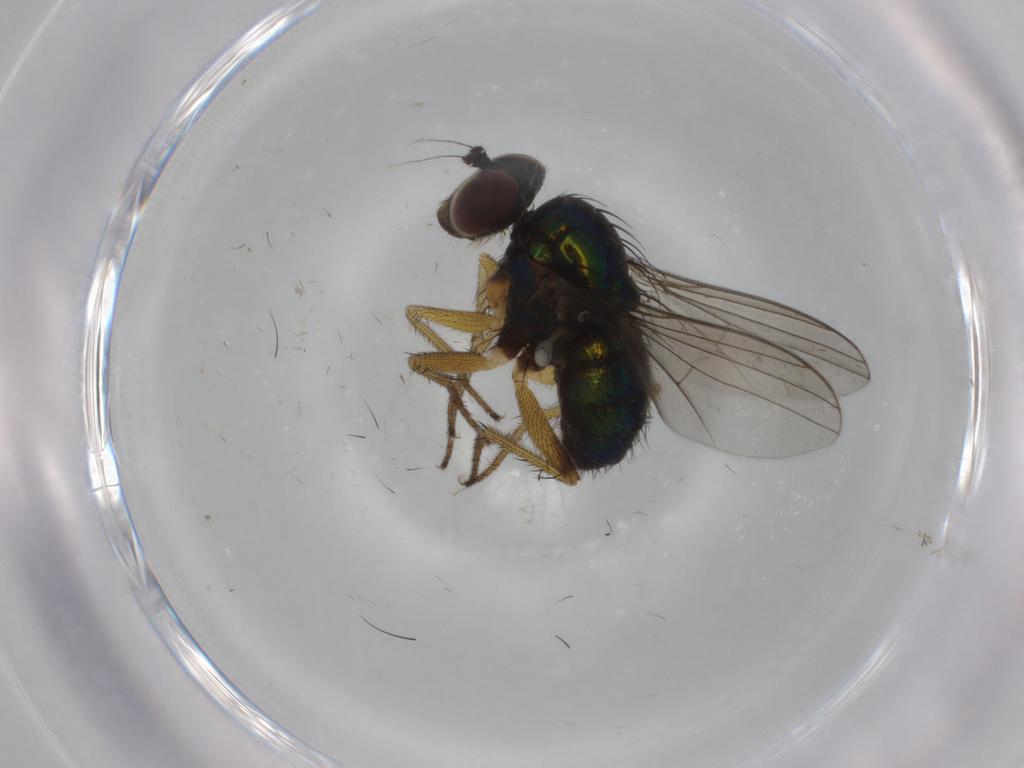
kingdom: Animalia
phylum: Arthropoda
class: Insecta
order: Diptera
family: Dolichopodidae
